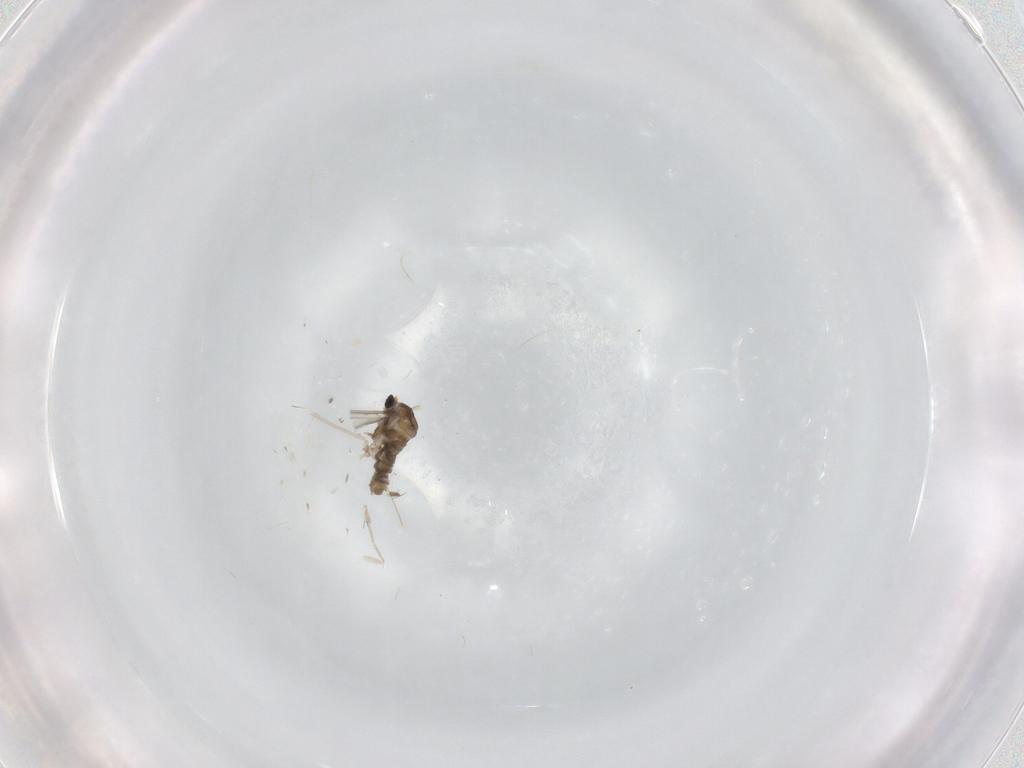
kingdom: Animalia
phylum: Arthropoda
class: Insecta
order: Diptera
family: Cecidomyiidae
